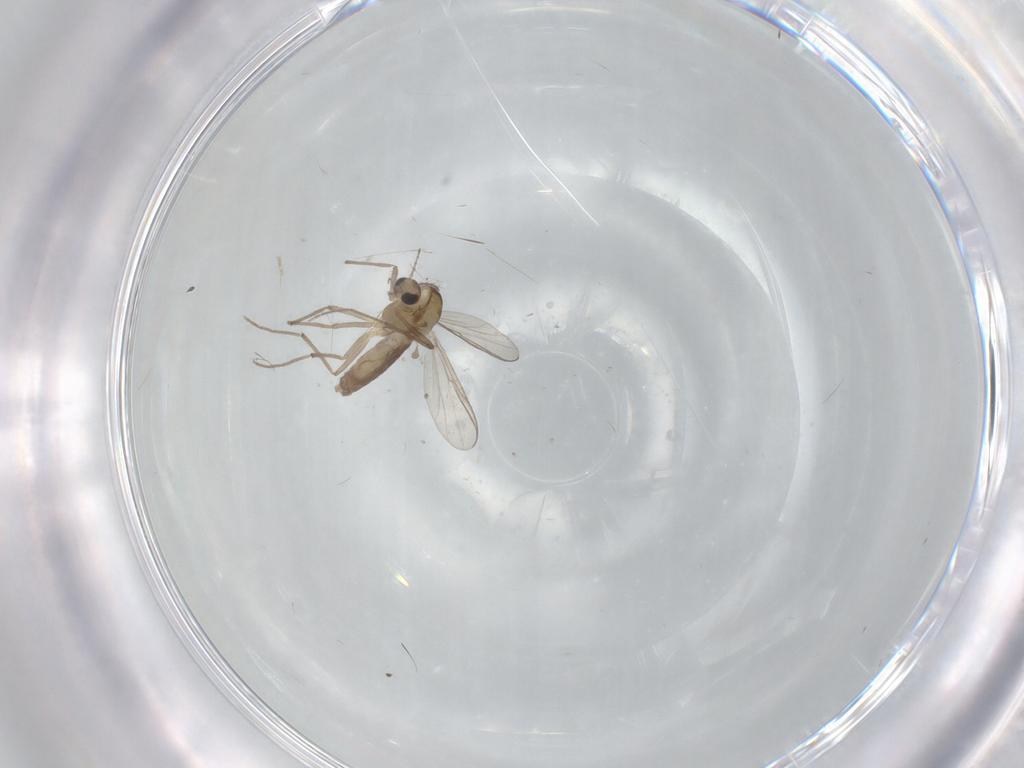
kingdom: Animalia
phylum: Arthropoda
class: Insecta
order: Diptera
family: Chironomidae
